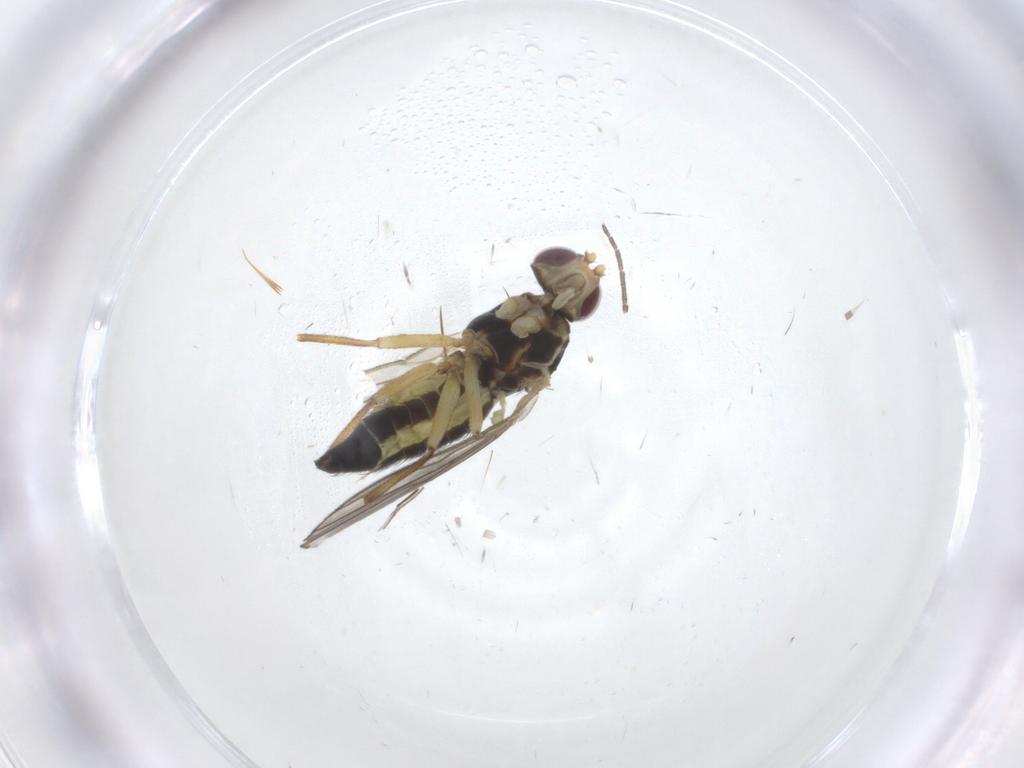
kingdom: Animalia
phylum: Arthropoda
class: Insecta
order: Diptera
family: Agromyzidae
